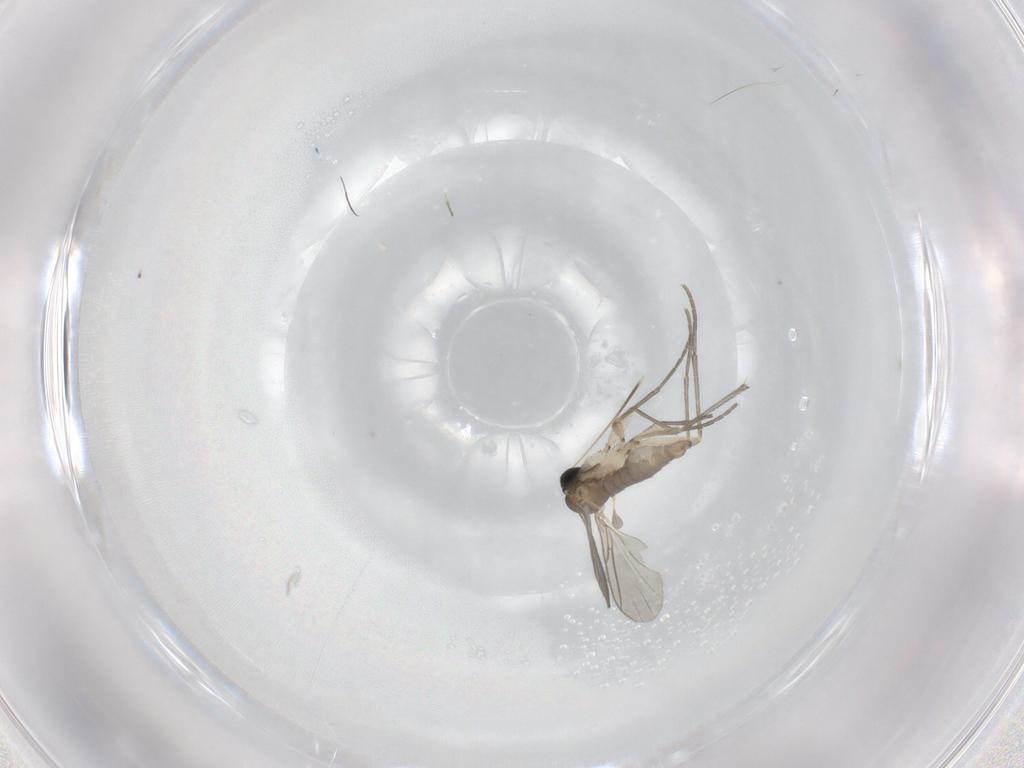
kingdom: Animalia
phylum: Arthropoda
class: Insecta
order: Diptera
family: Sciaridae
